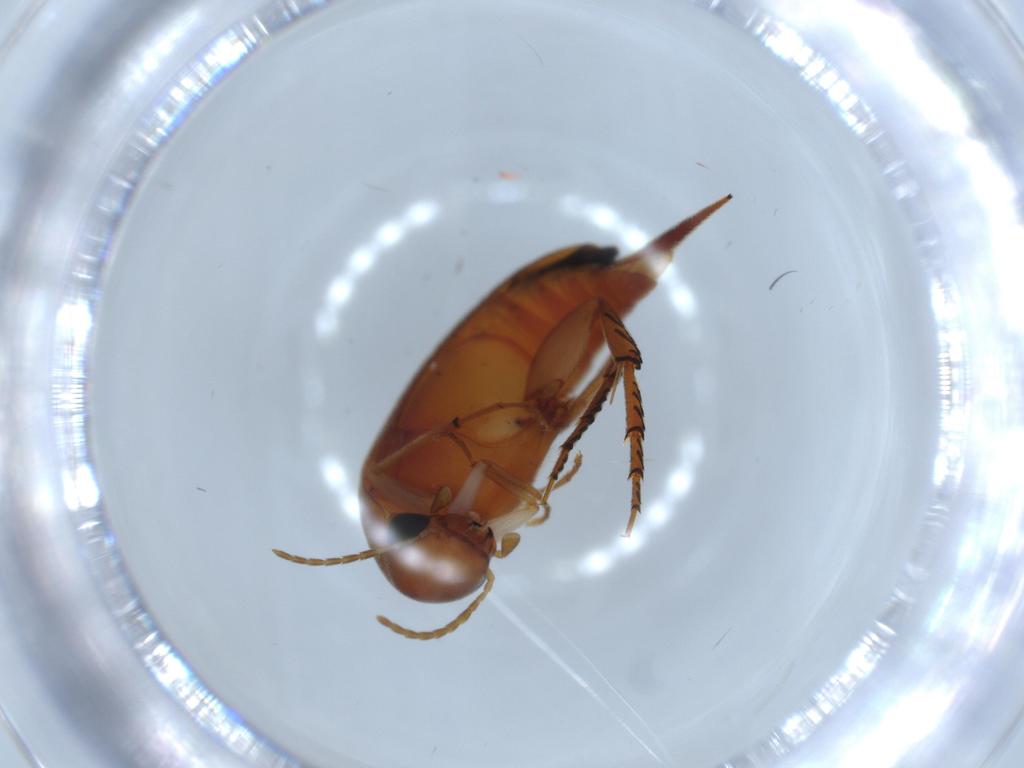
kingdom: Animalia
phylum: Arthropoda
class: Insecta
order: Coleoptera
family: Mordellidae
